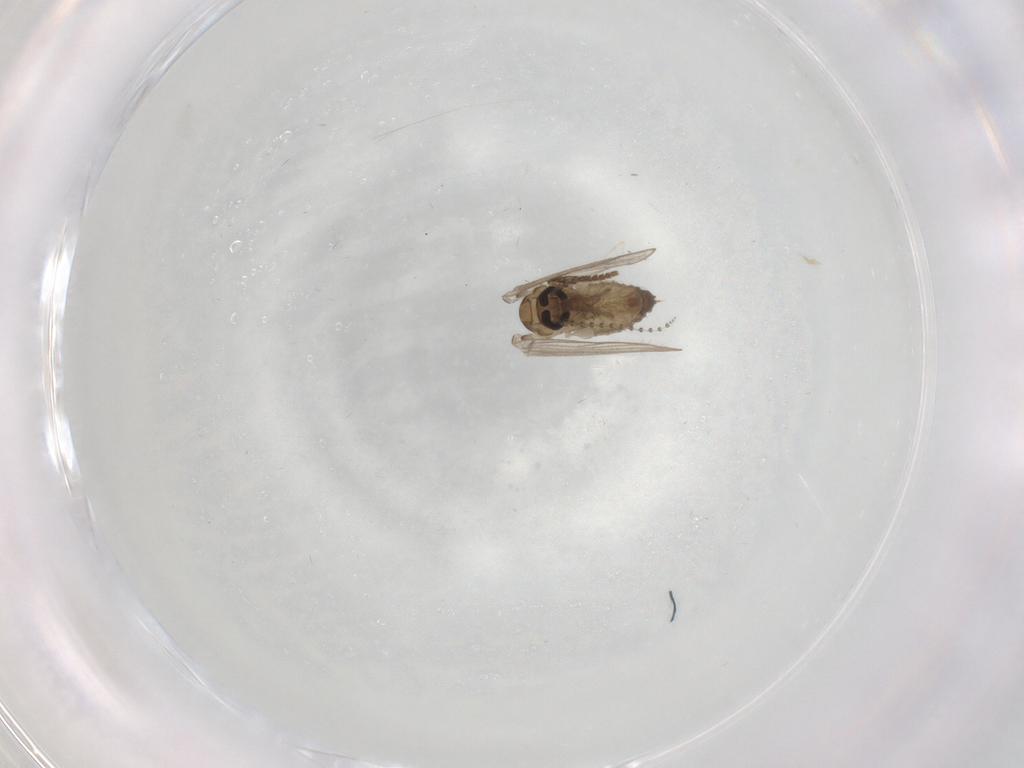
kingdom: Animalia
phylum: Arthropoda
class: Insecta
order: Diptera
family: Psychodidae
